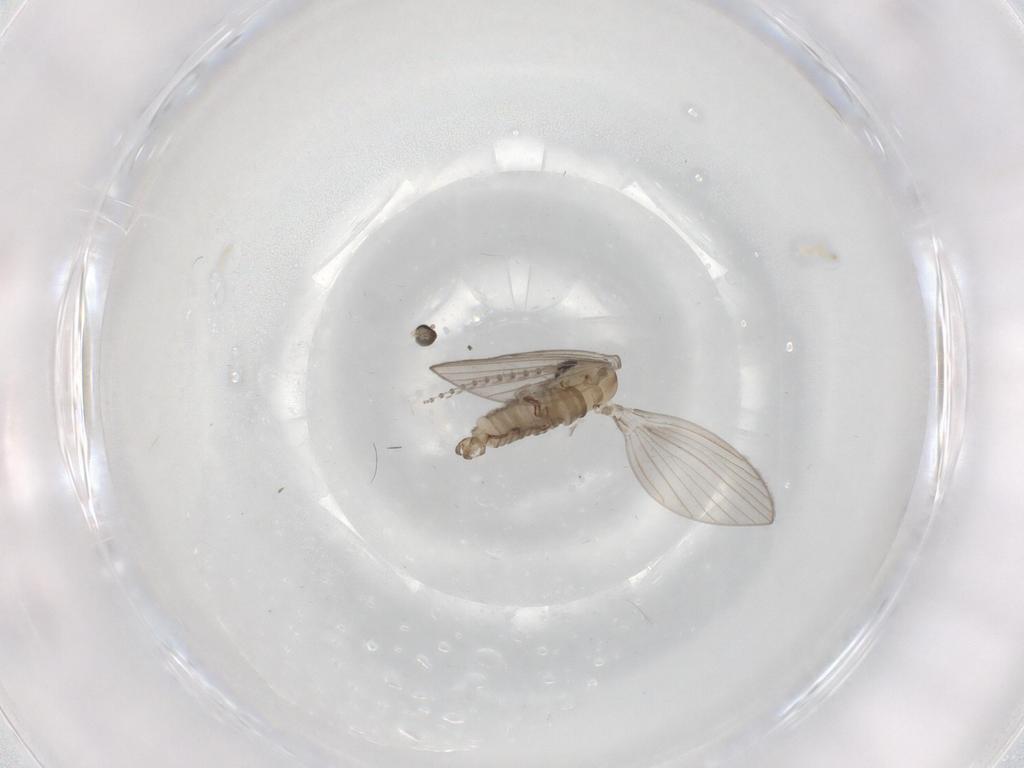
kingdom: Animalia
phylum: Arthropoda
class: Insecta
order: Diptera
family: Psychodidae
